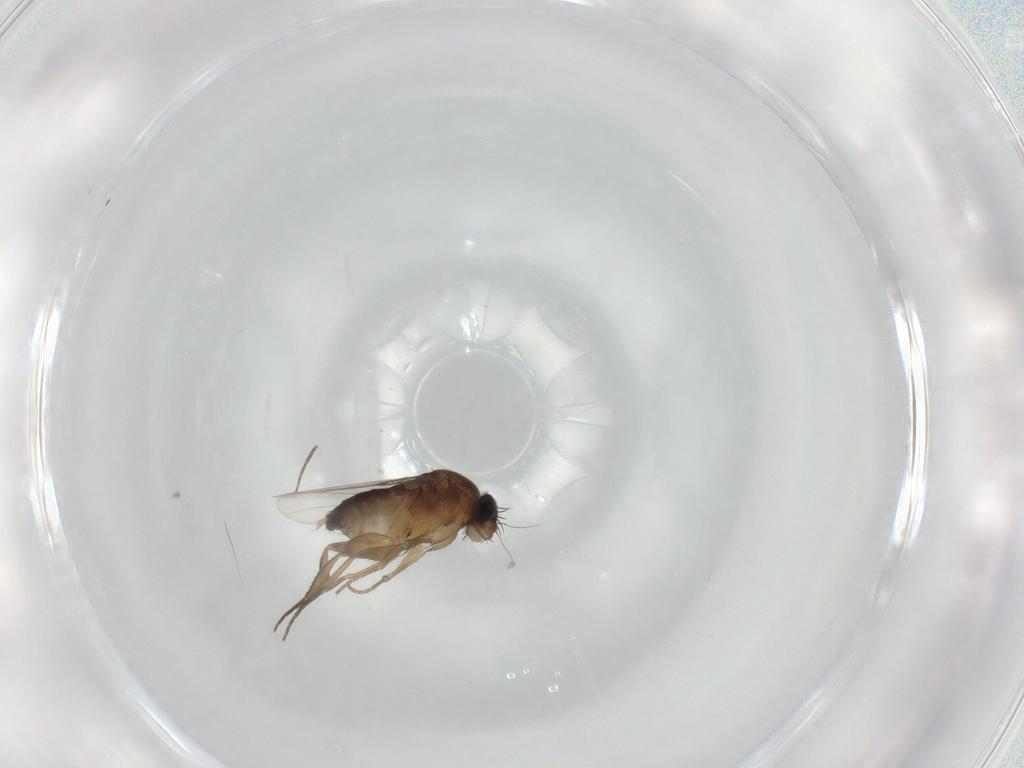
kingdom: Animalia
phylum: Arthropoda
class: Insecta
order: Diptera
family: Phoridae
